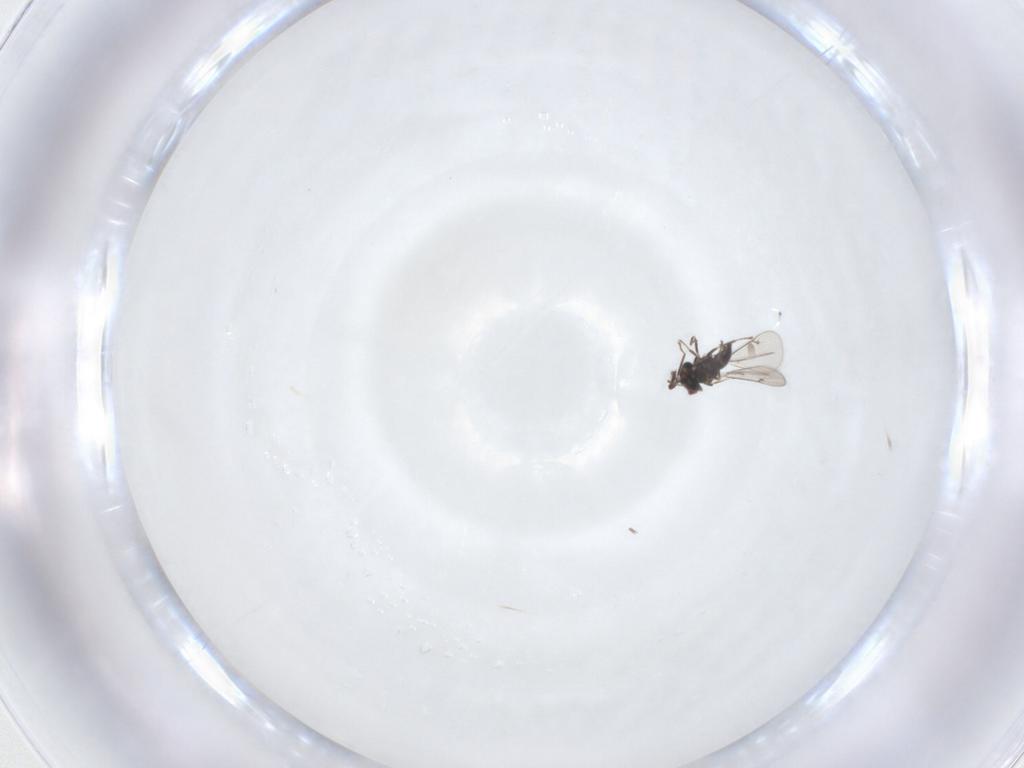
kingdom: Animalia
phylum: Arthropoda
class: Insecta
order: Hymenoptera
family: Eulophidae
